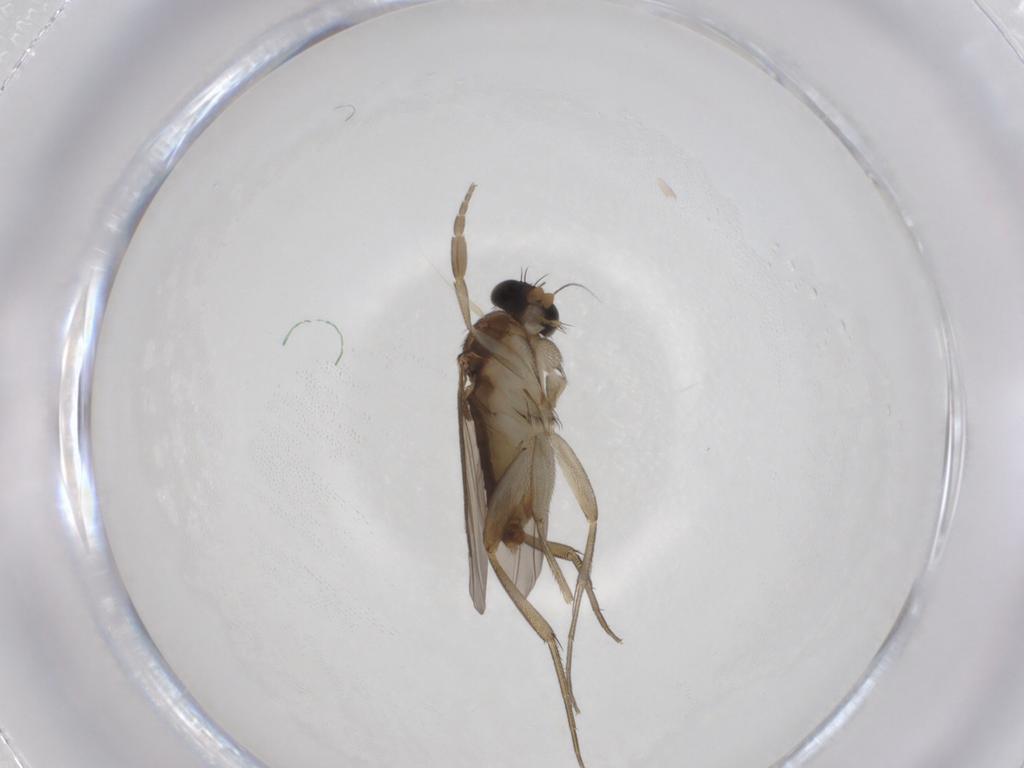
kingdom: Animalia
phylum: Arthropoda
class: Insecta
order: Diptera
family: Phoridae
